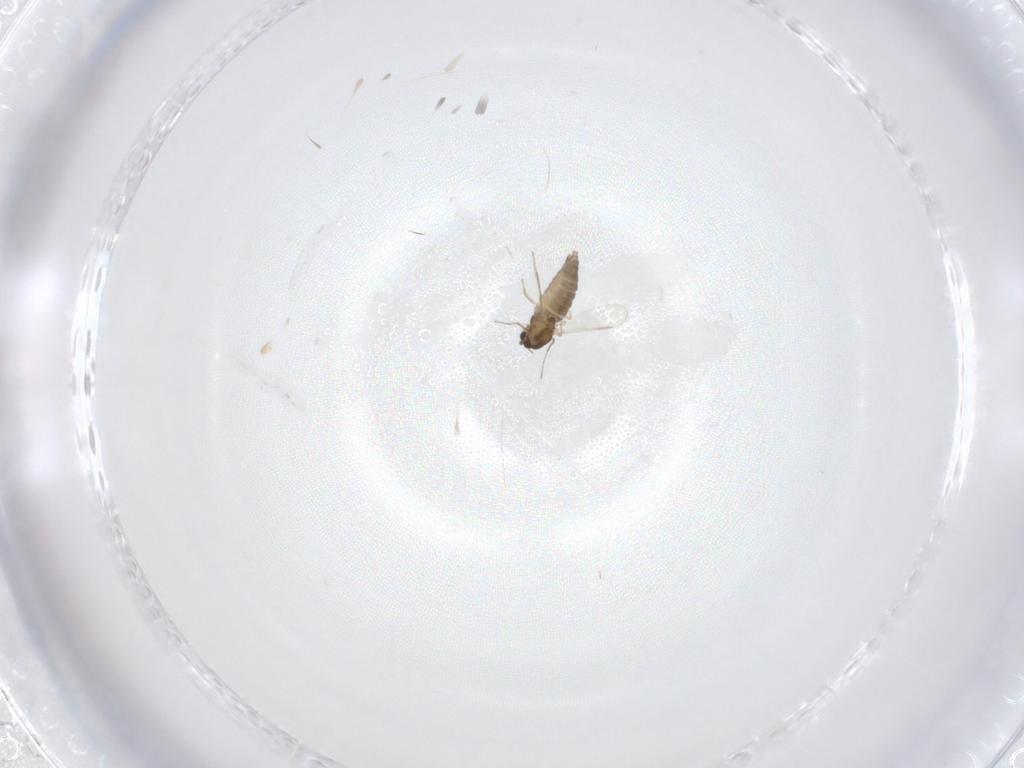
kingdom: Animalia
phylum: Arthropoda
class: Insecta
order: Diptera
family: Chironomidae
